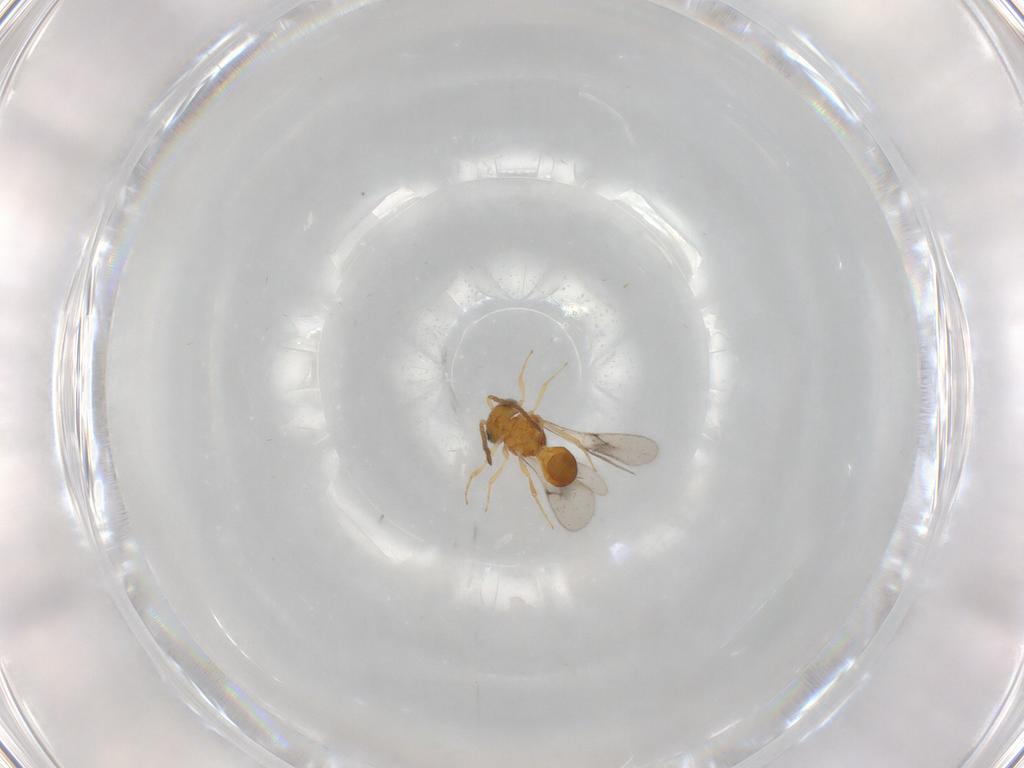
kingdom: Animalia
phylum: Arthropoda
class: Insecta
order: Hymenoptera
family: Scelionidae
